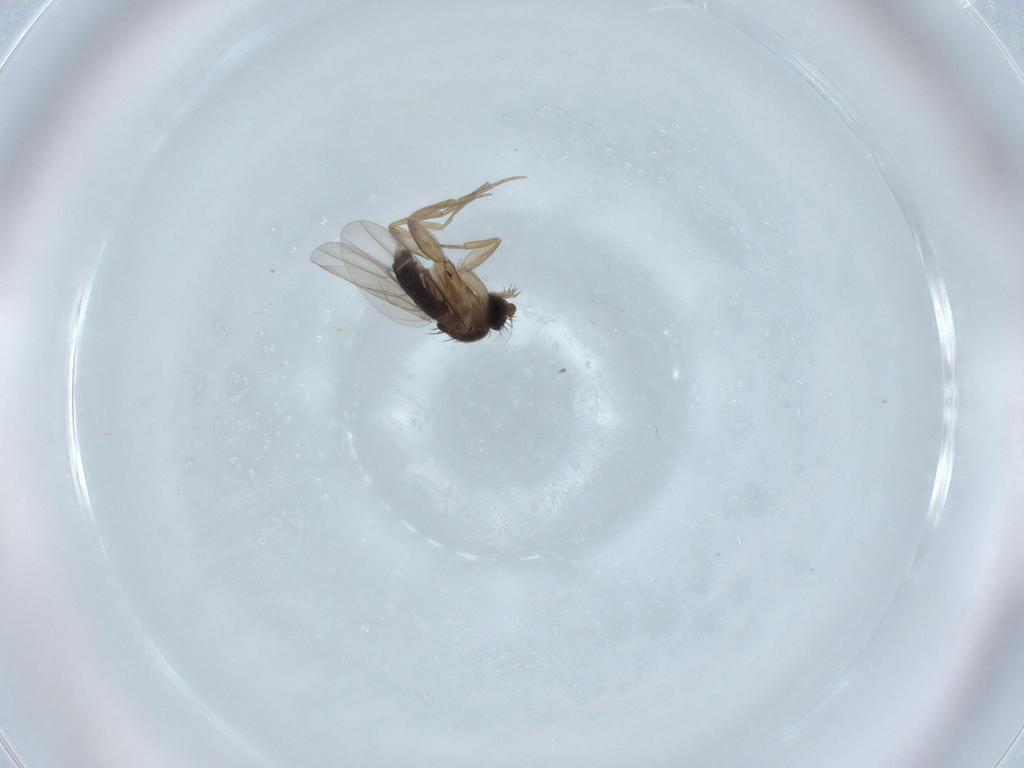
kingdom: Animalia
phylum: Arthropoda
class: Insecta
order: Diptera
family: Phoridae
